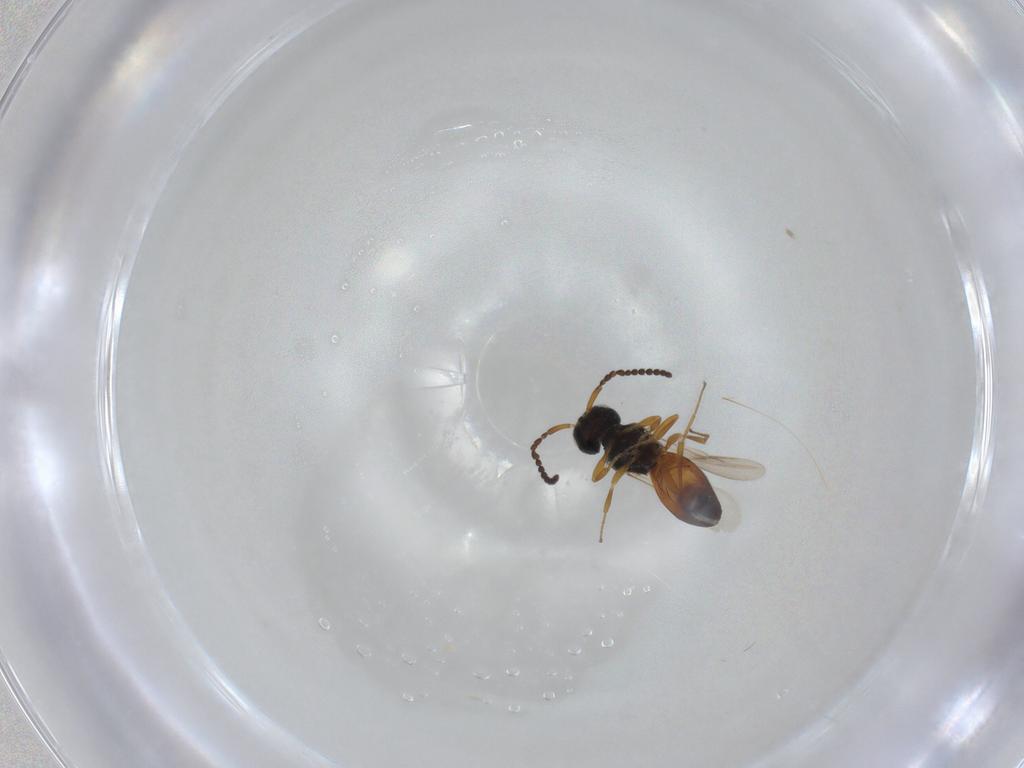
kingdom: Animalia
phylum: Arthropoda
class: Insecta
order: Hymenoptera
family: Scelionidae
